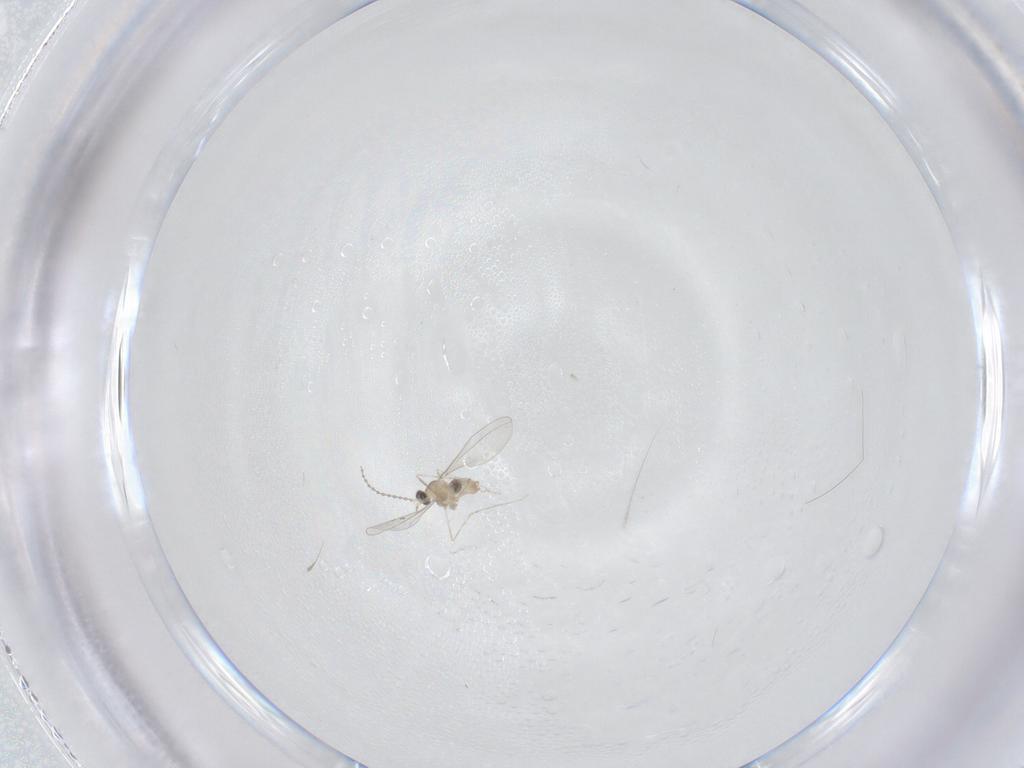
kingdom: Animalia
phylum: Arthropoda
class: Insecta
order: Diptera
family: Cecidomyiidae
